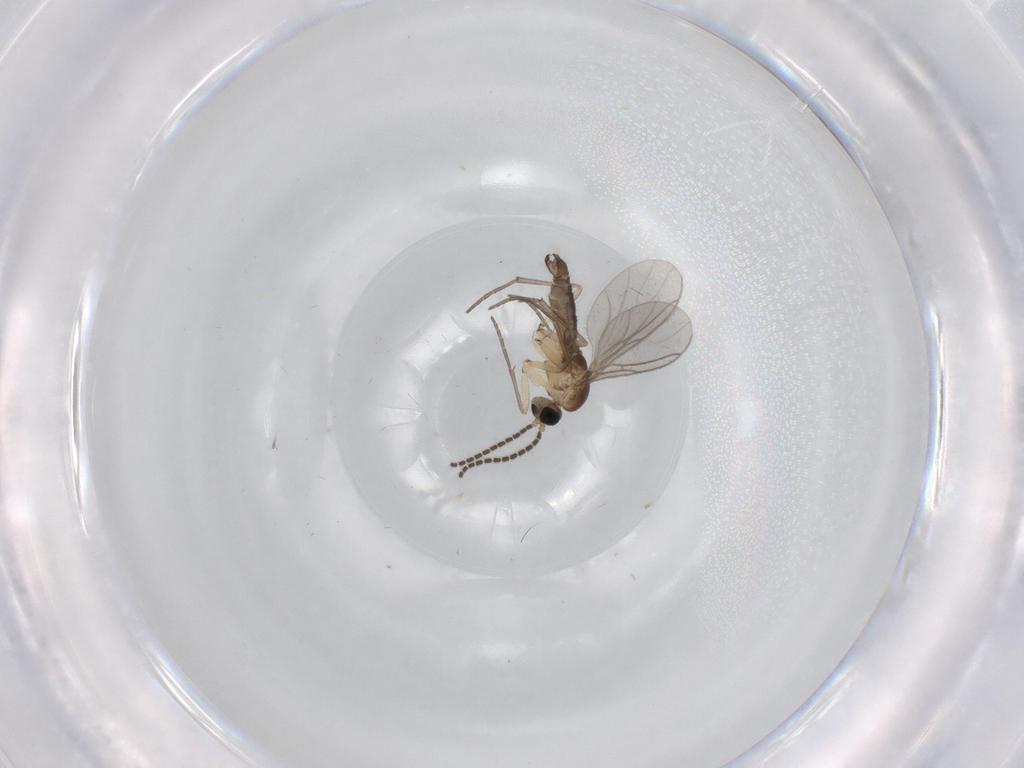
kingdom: Animalia
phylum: Arthropoda
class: Insecta
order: Diptera
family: Sciaridae
